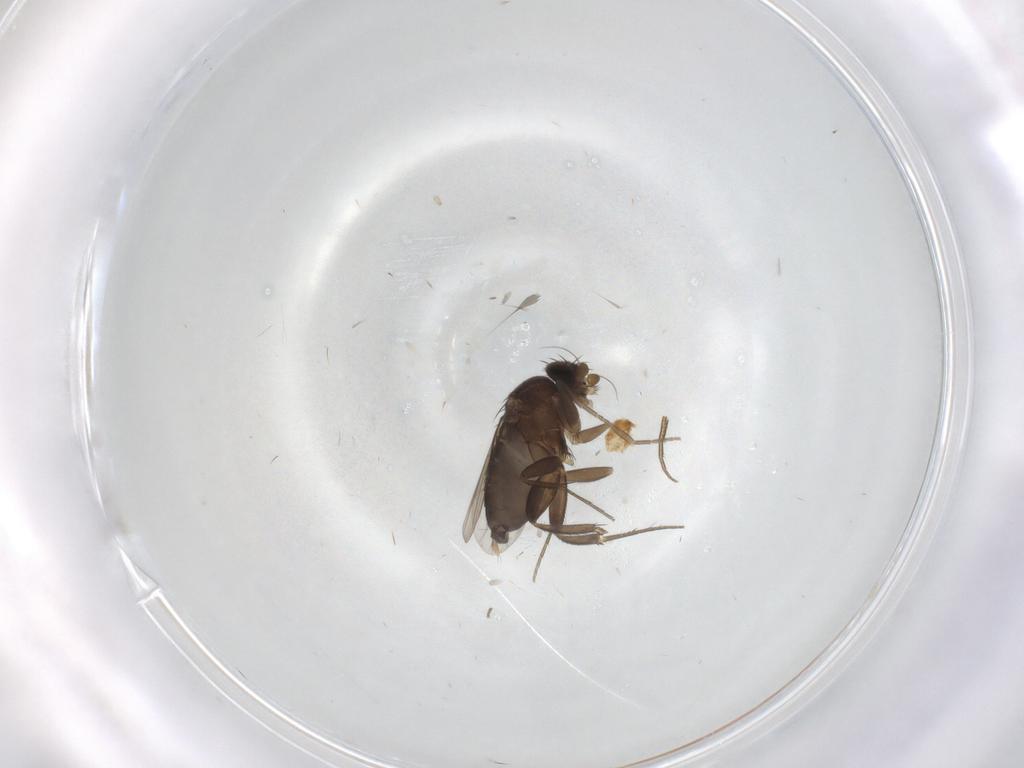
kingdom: Animalia
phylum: Arthropoda
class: Insecta
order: Diptera
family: Phoridae
